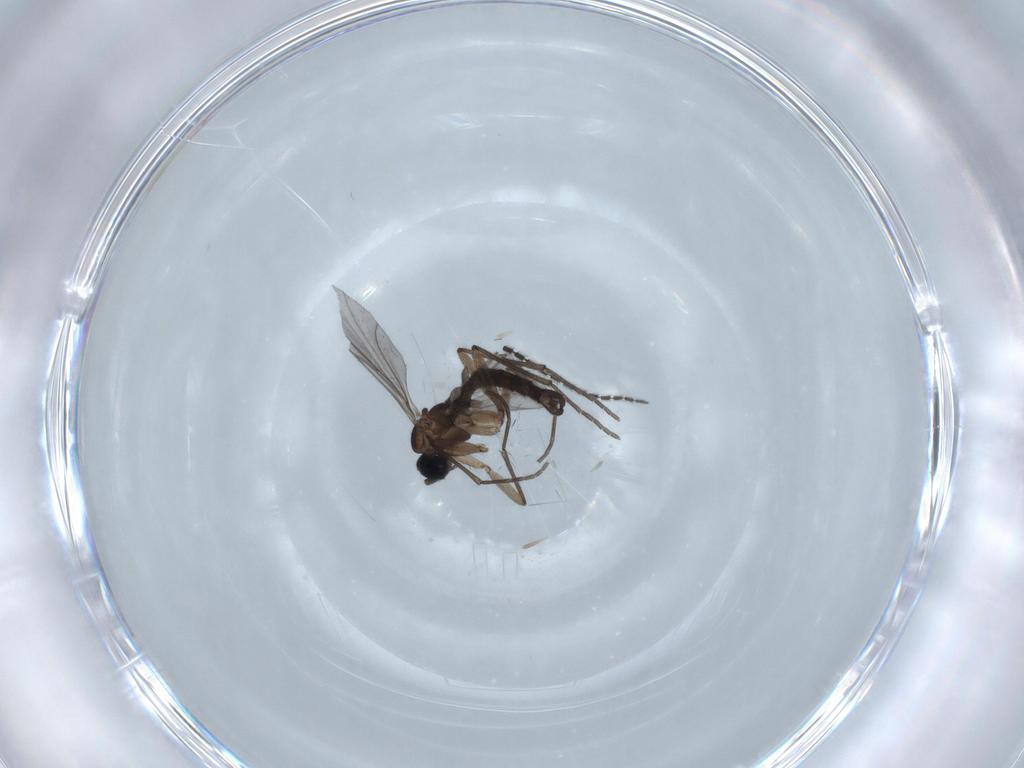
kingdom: Animalia
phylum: Arthropoda
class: Insecta
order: Diptera
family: Sciaridae
